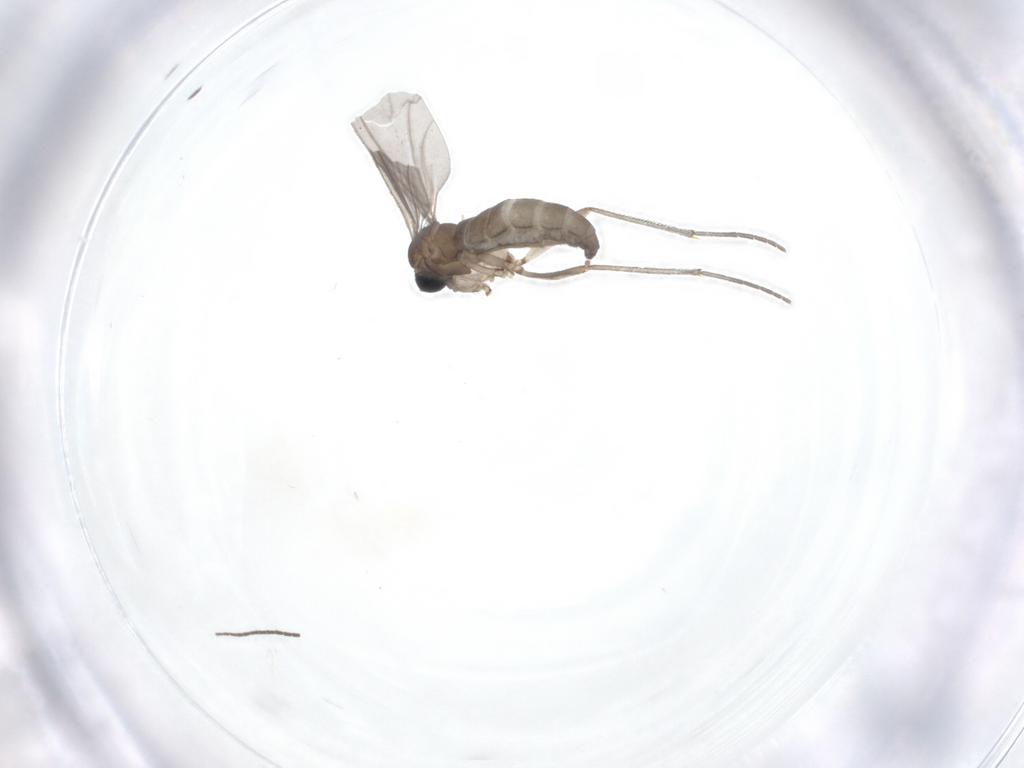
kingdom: Animalia
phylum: Arthropoda
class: Insecta
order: Diptera
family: Sciaridae
